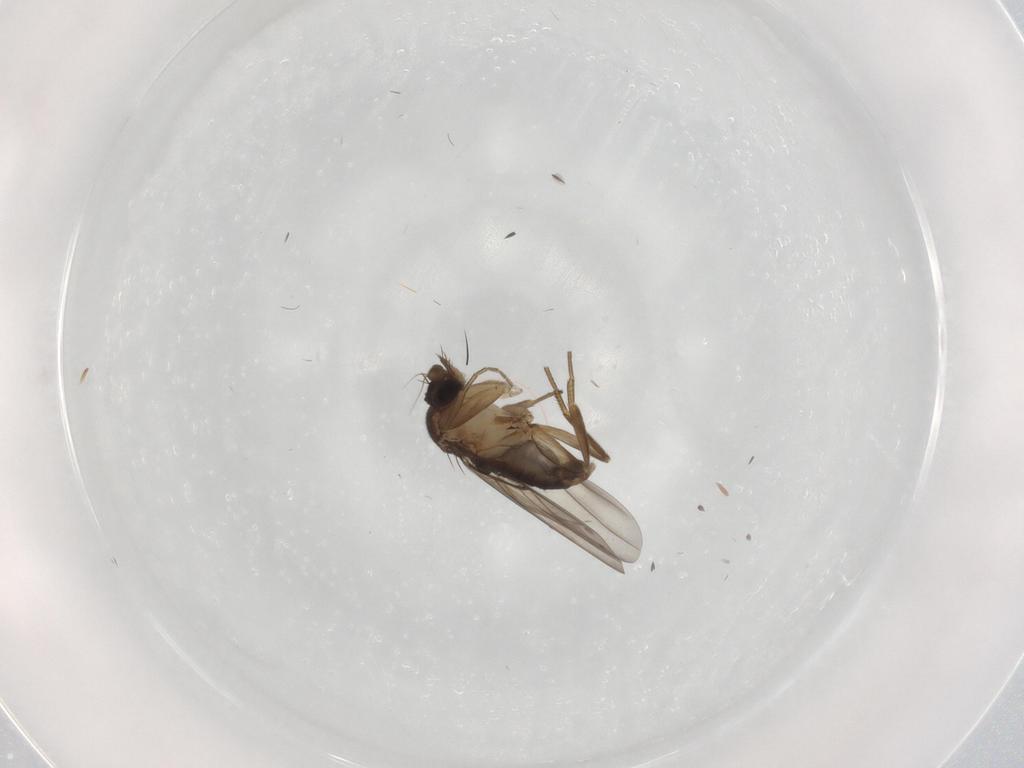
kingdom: Animalia
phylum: Arthropoda
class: Insecta
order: Diptera
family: Phoridae
